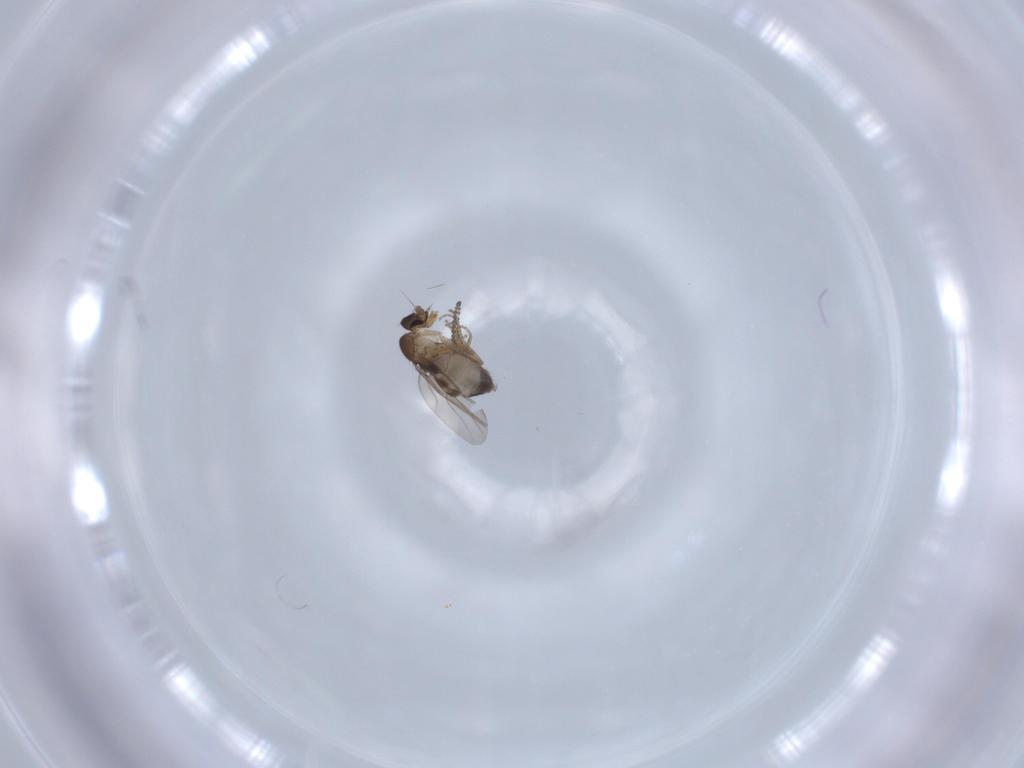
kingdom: Animalia
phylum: Arthropoda
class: Insecta
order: Diptera
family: Phoridae
